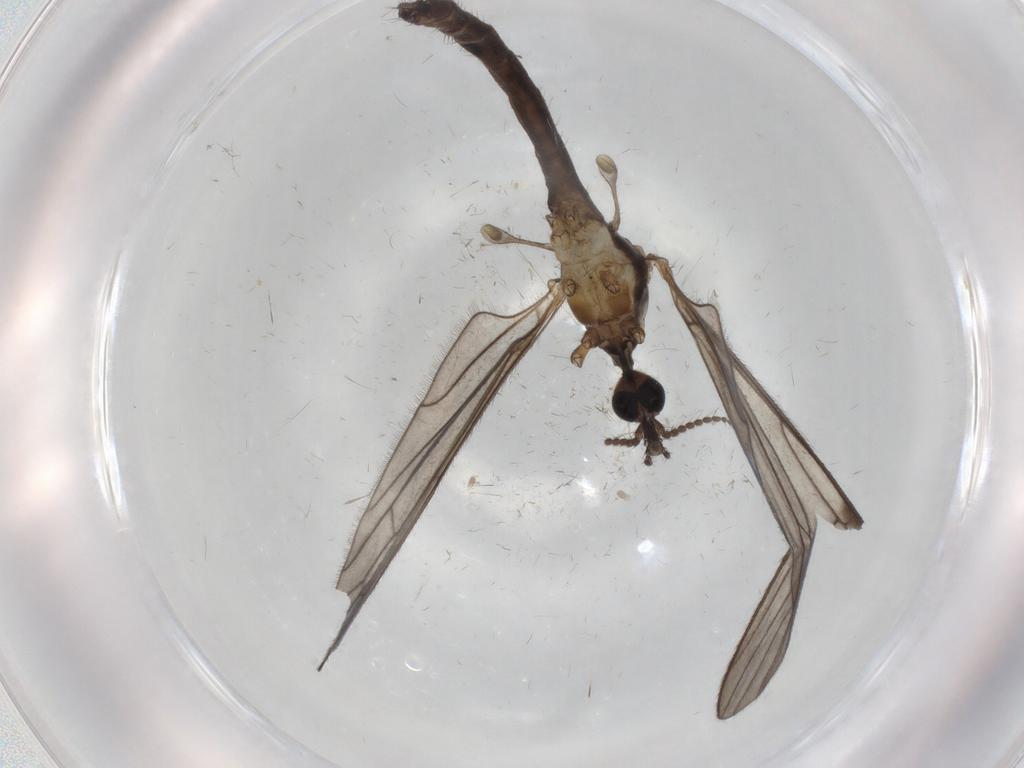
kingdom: Animalia
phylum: Arthropoda
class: Insecta
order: Diptera
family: Limoniidae
